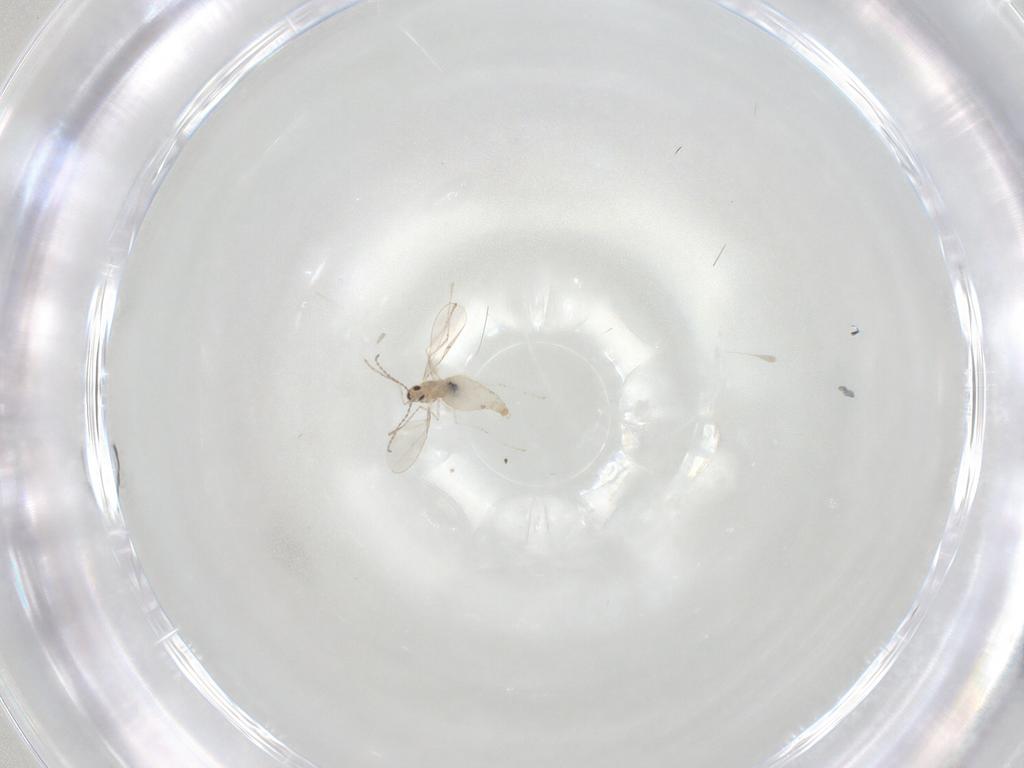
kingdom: Animalia
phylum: Arthropoda
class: Insecta
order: Diptera
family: Cecidomyiidae
